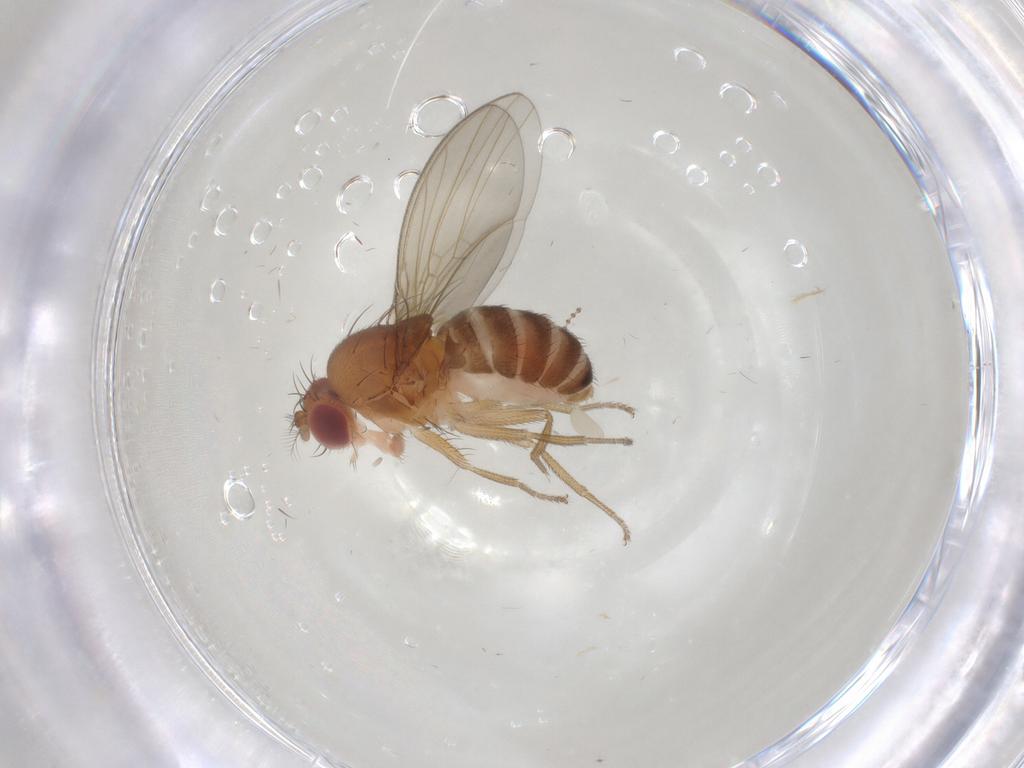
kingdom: Animalia
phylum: Arthropoda
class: Insecta
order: Diptera
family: Drosophilidae
